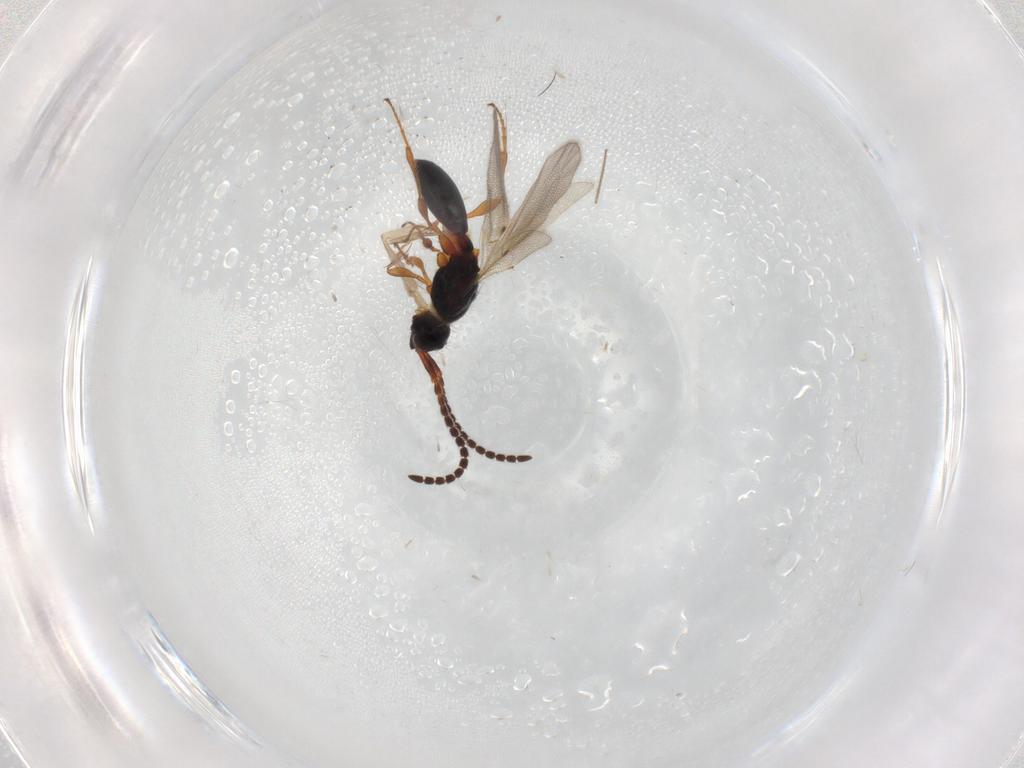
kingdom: Animalia
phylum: Arthropoda
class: Insecta
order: Hymenoptera
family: Diapriidae
